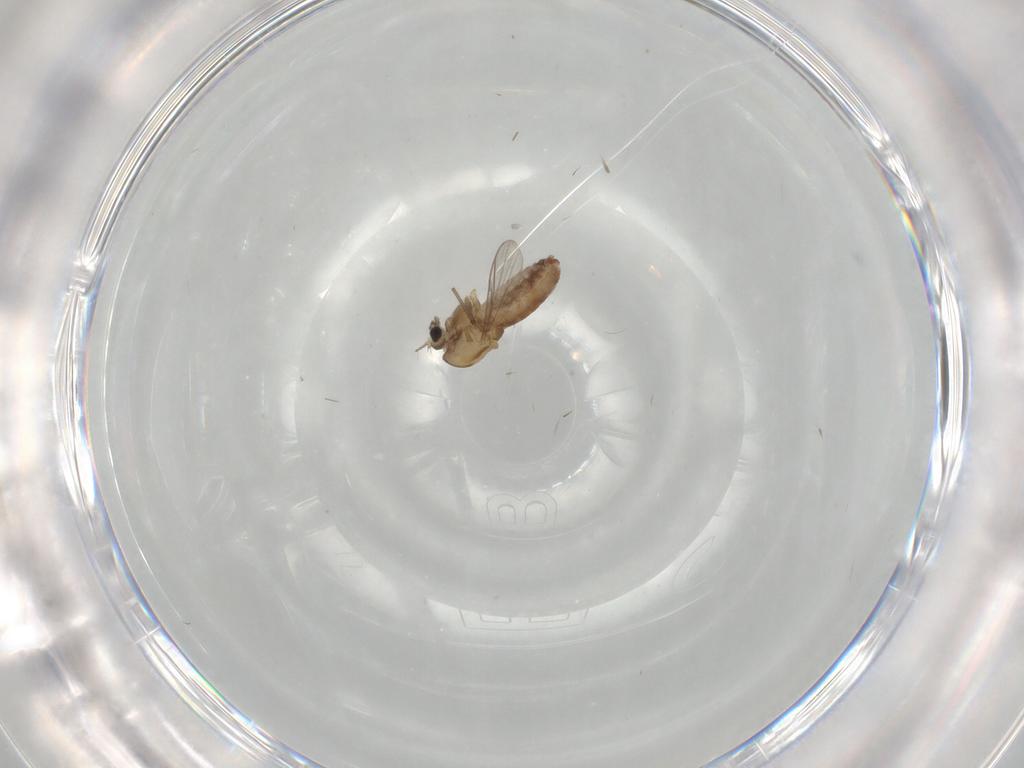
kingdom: Animalia
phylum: Arthropoda
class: Insecta
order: Diptera
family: Chironomidae
